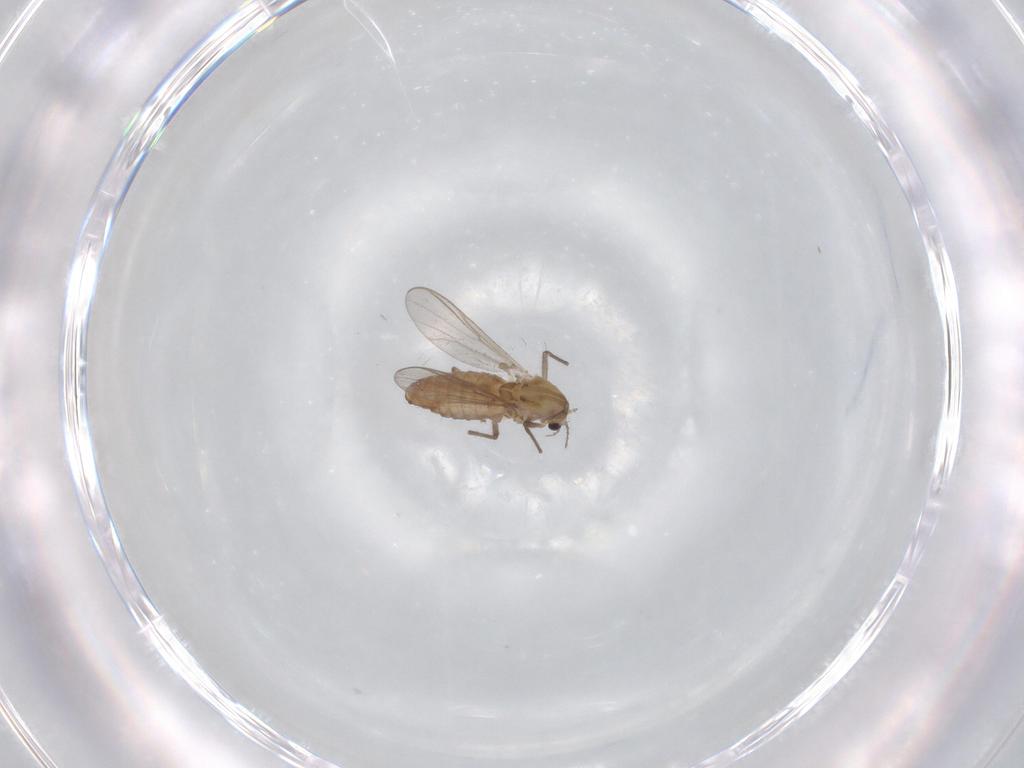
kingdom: Animalia
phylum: Arthropoda
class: Insecta
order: Diptera
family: Chironomidae
